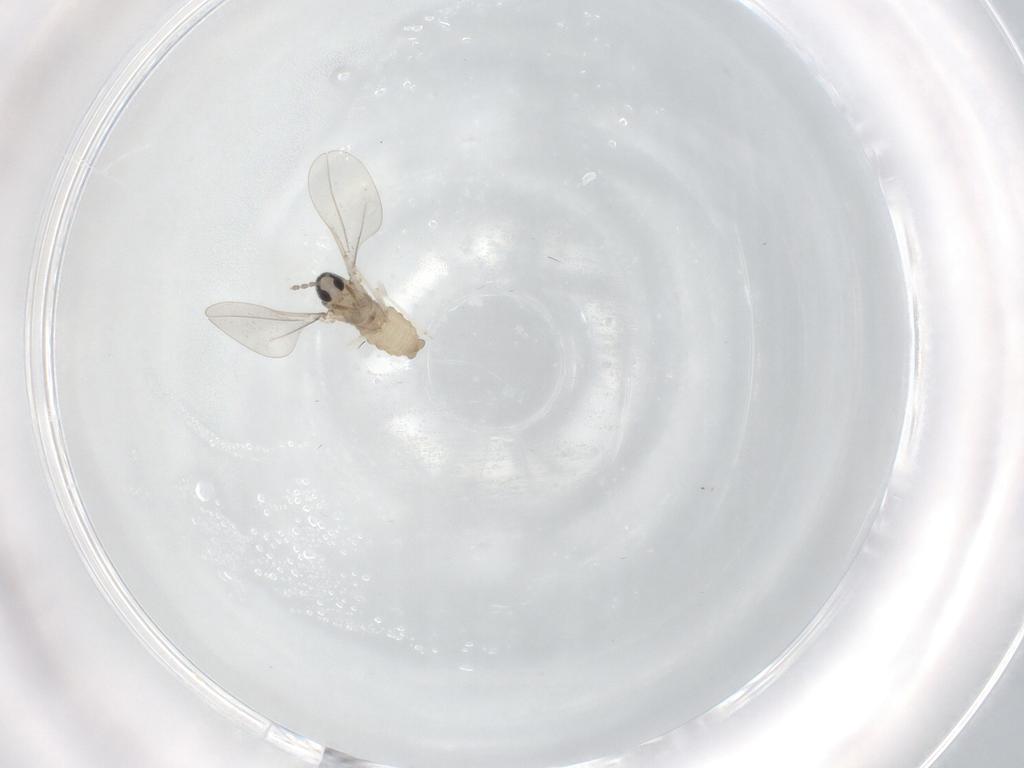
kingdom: Animalia
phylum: Arthropoda
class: Insecta
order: Diptera
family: Cecidomyiidae
